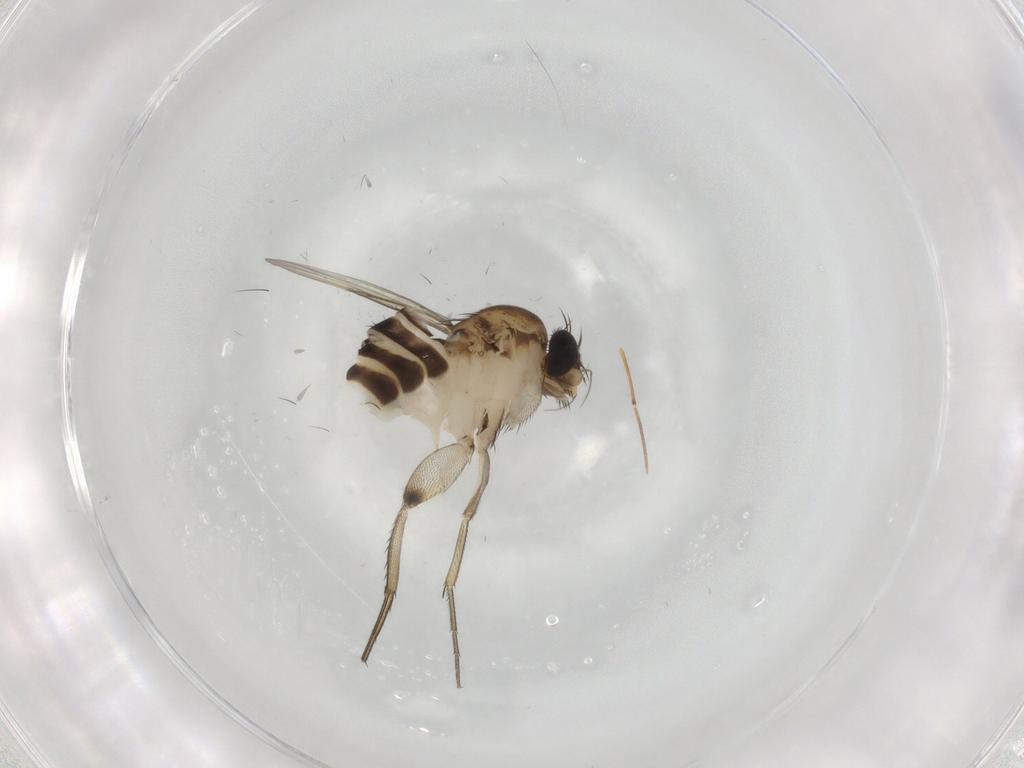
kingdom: Animalia
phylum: Arthropoda
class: Insecta
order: Diptera
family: Phoridae
